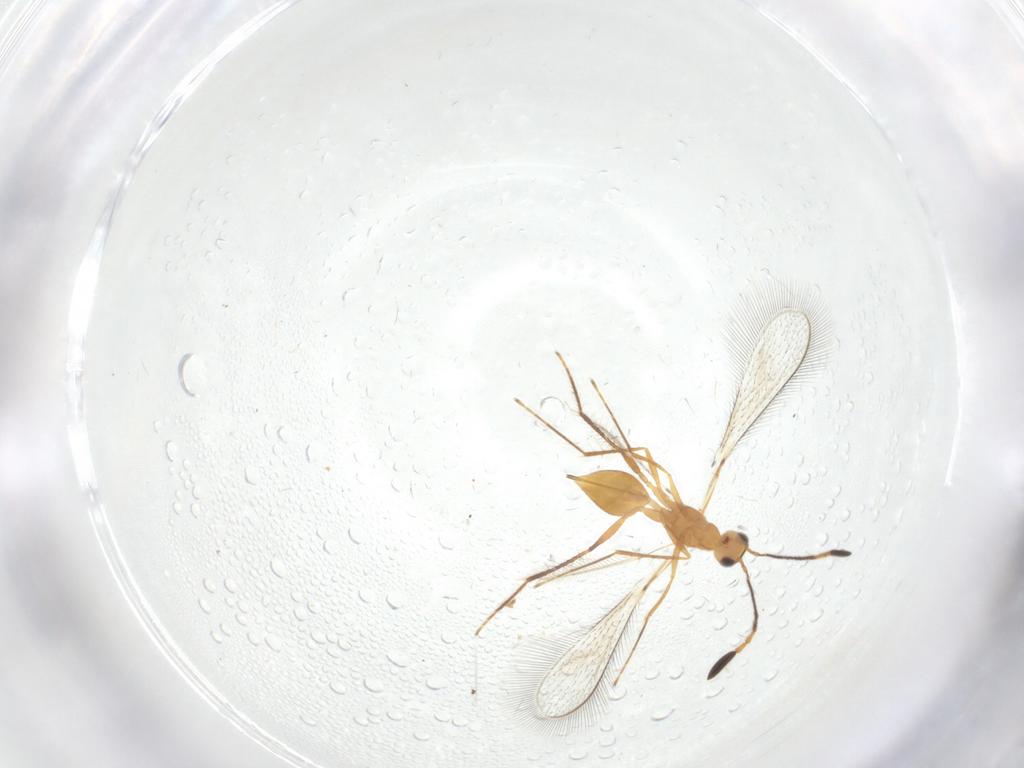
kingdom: Animalia
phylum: Arthropoda
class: Insecta
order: Hymenoptera
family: Mymaridae
